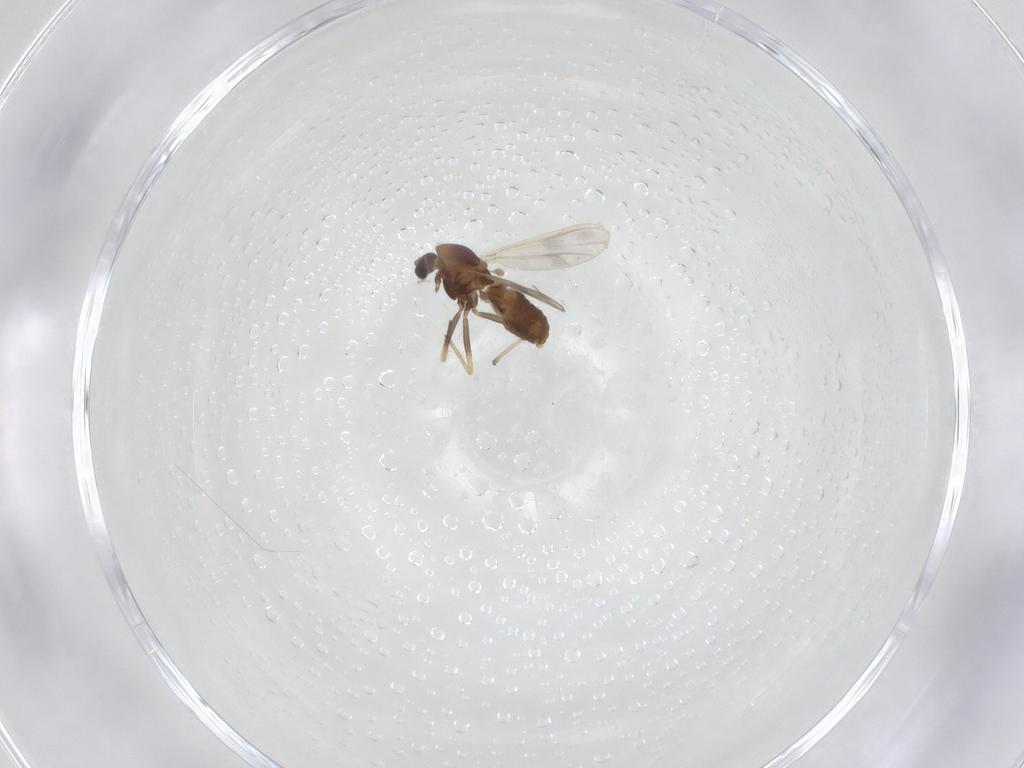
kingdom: Animalia
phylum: Arthropoda
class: Insecta
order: Diptera
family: Chironomidae
